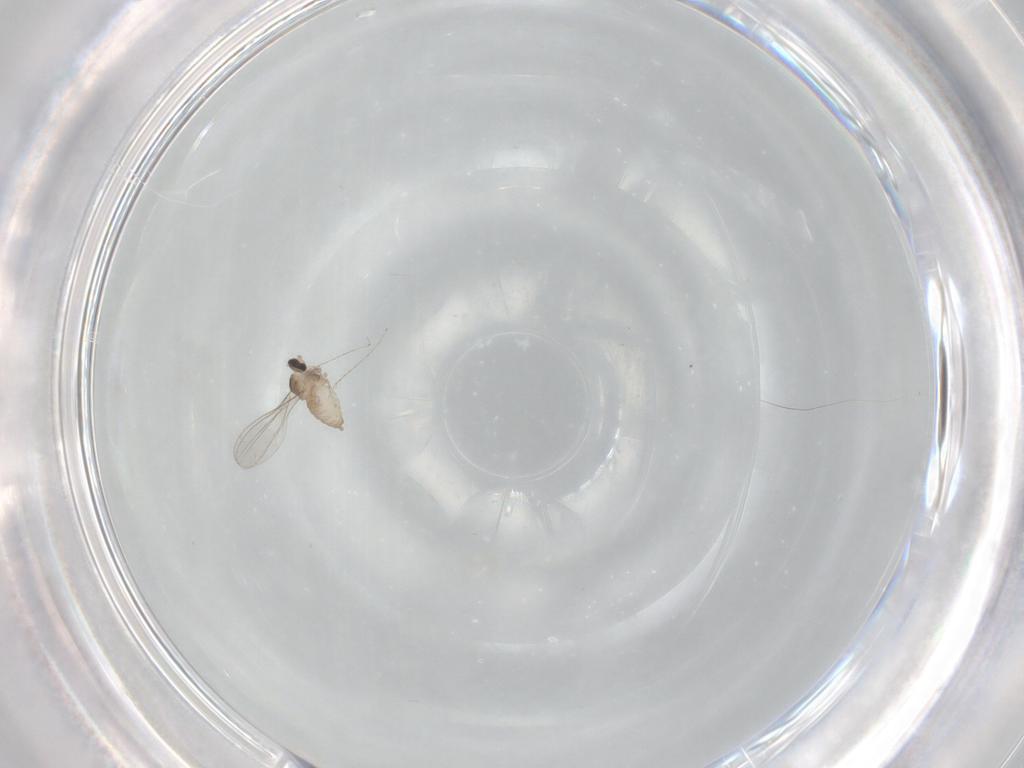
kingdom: Animalia
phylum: Arthropoda
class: Insecta
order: Diptera
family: Cecidomyiidae
